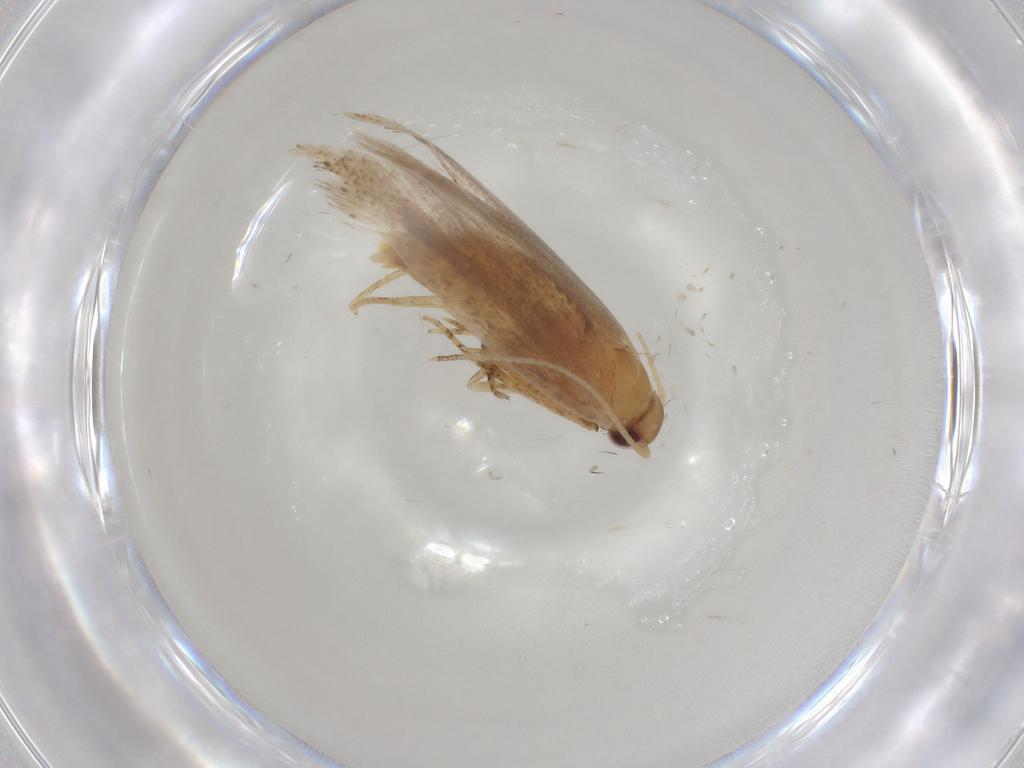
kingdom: Animalia
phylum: Arthropoda
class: Insecta
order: Lepidoptera
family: Crambidae
